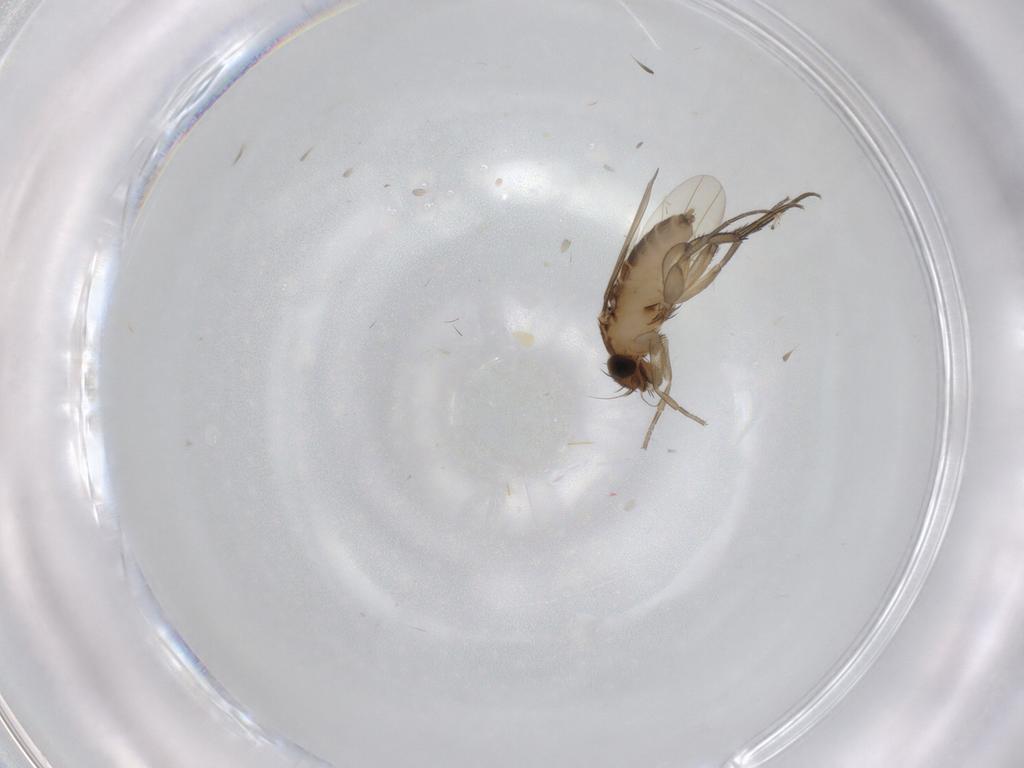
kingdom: Animalia
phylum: Arthropoda
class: Insecta
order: Diptera
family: Phoridae
